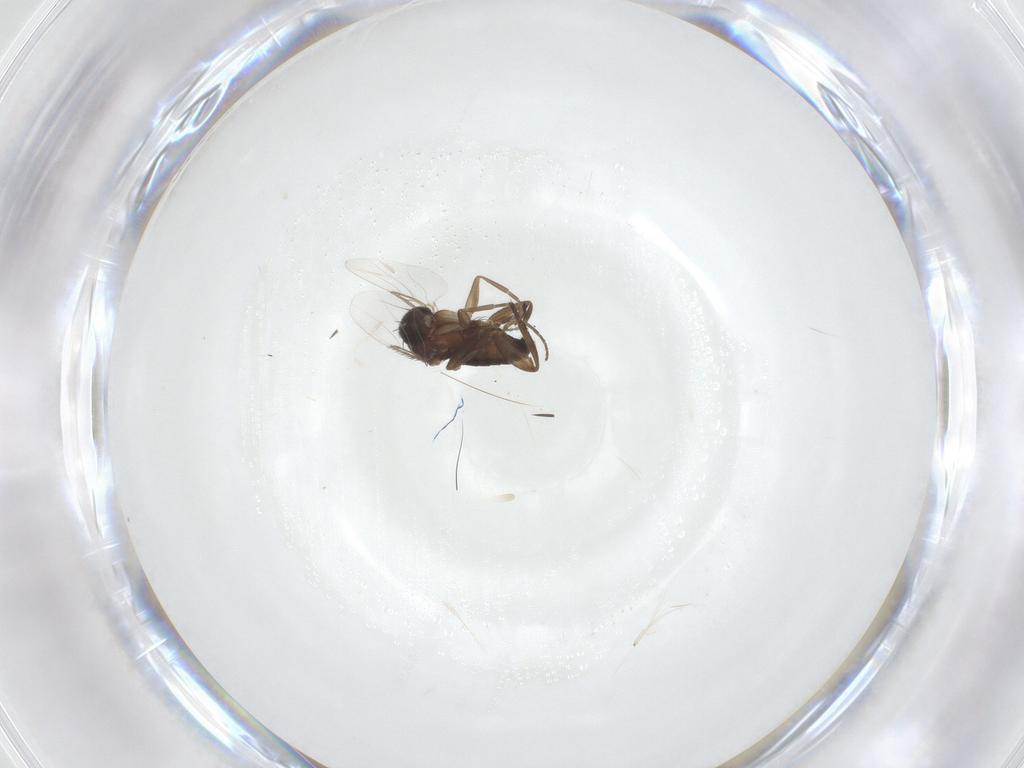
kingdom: Animalia
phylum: Arthropoda
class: Insecta
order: Diptera
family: Phoridae
